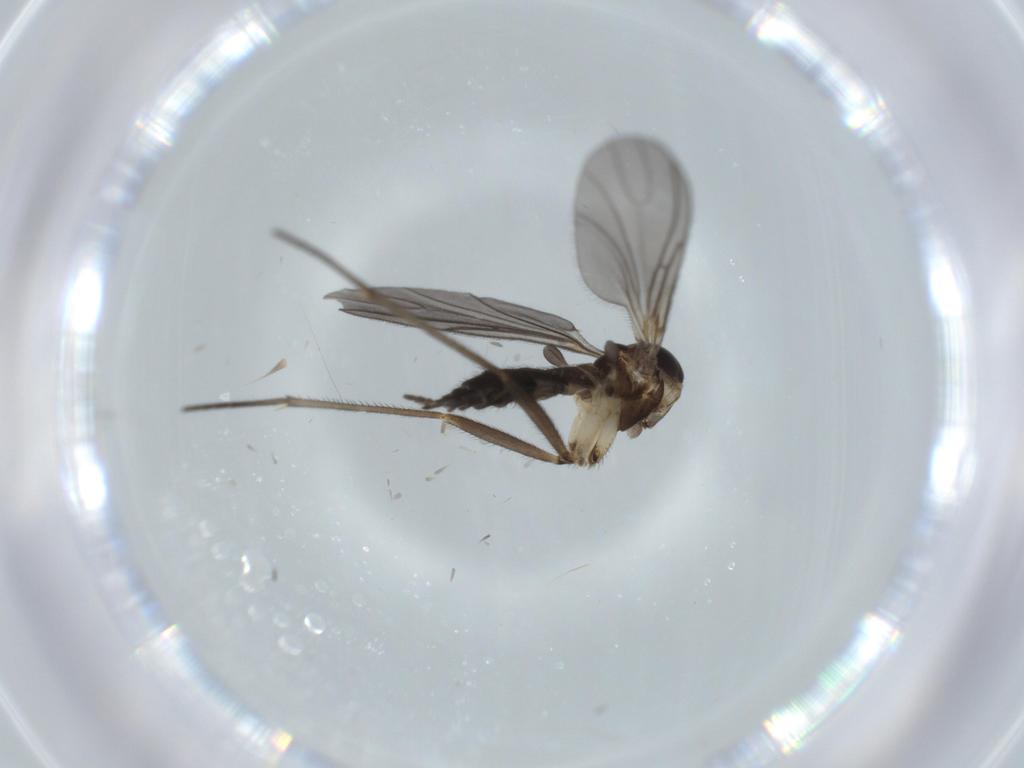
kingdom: Animalia
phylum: Arthropoda
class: Insecta
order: Diptera
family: Sciaridae
